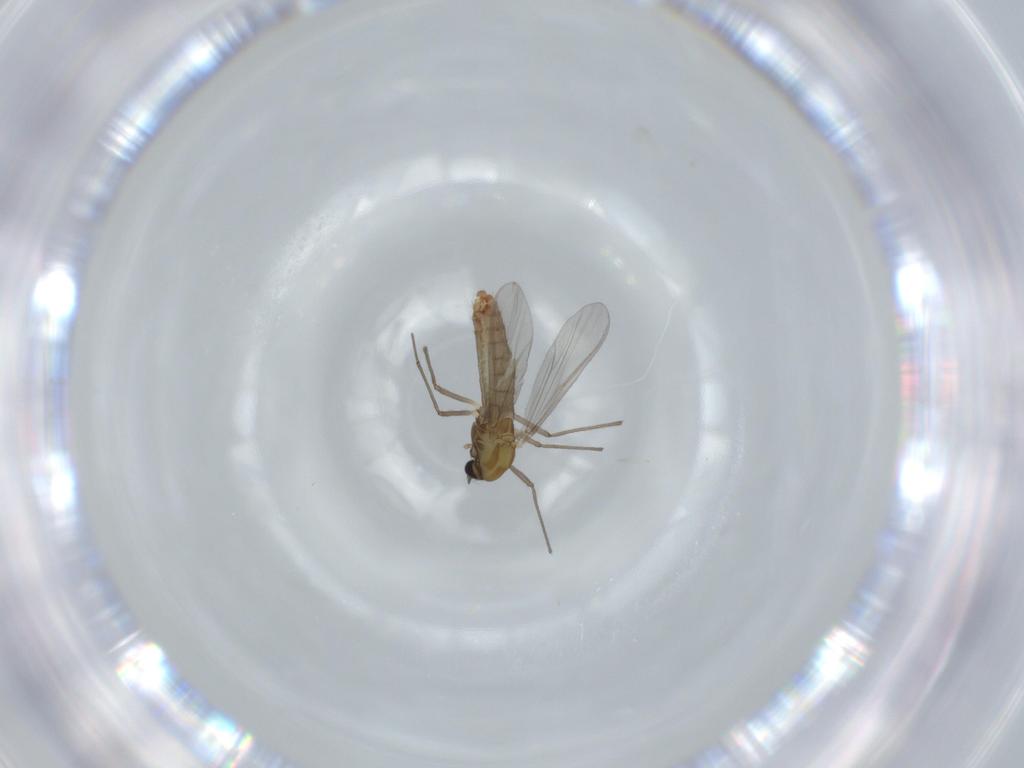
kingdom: Animalia
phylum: Arthropoda
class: Insecta
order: Diptera
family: Chironomidae
